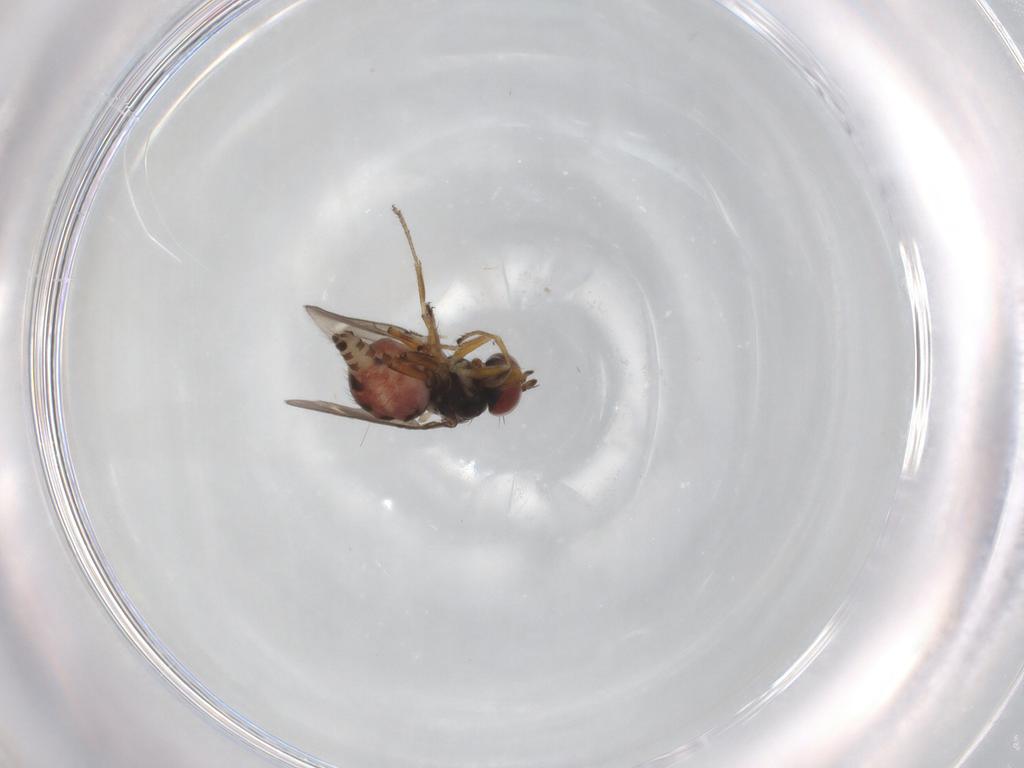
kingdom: Animalia
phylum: Arthropoda
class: Insecta
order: Diptera
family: Ephydridae
